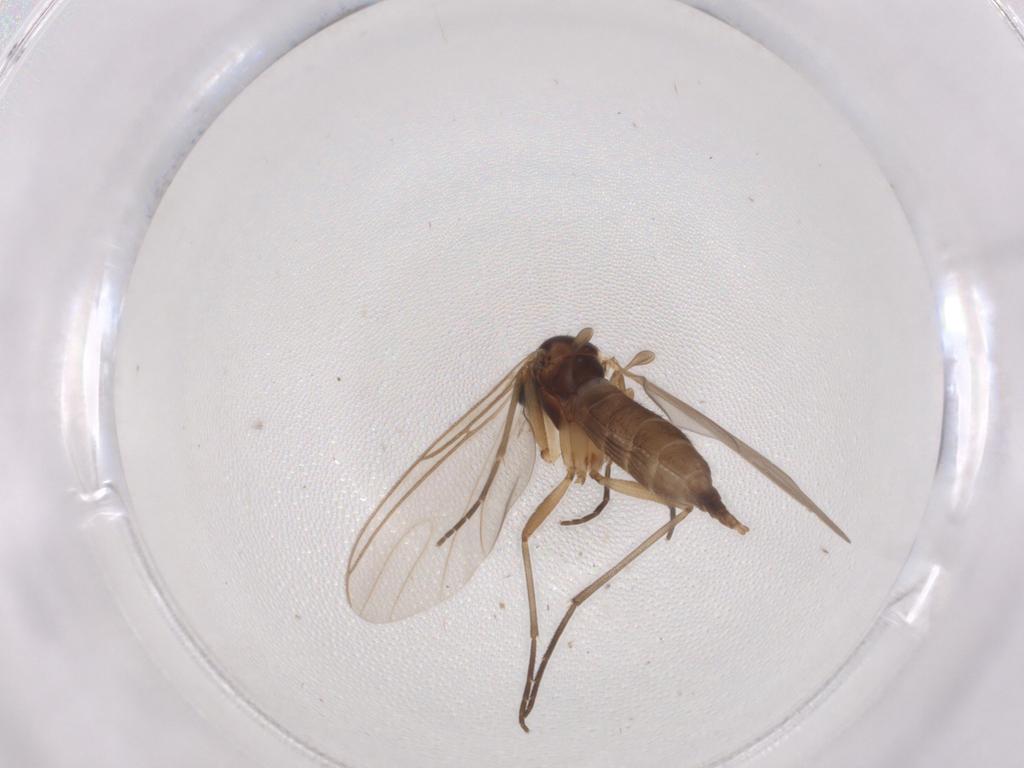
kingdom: Animalia
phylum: Arthropoda
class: Insecta
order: Diptera
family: Sciaridae
